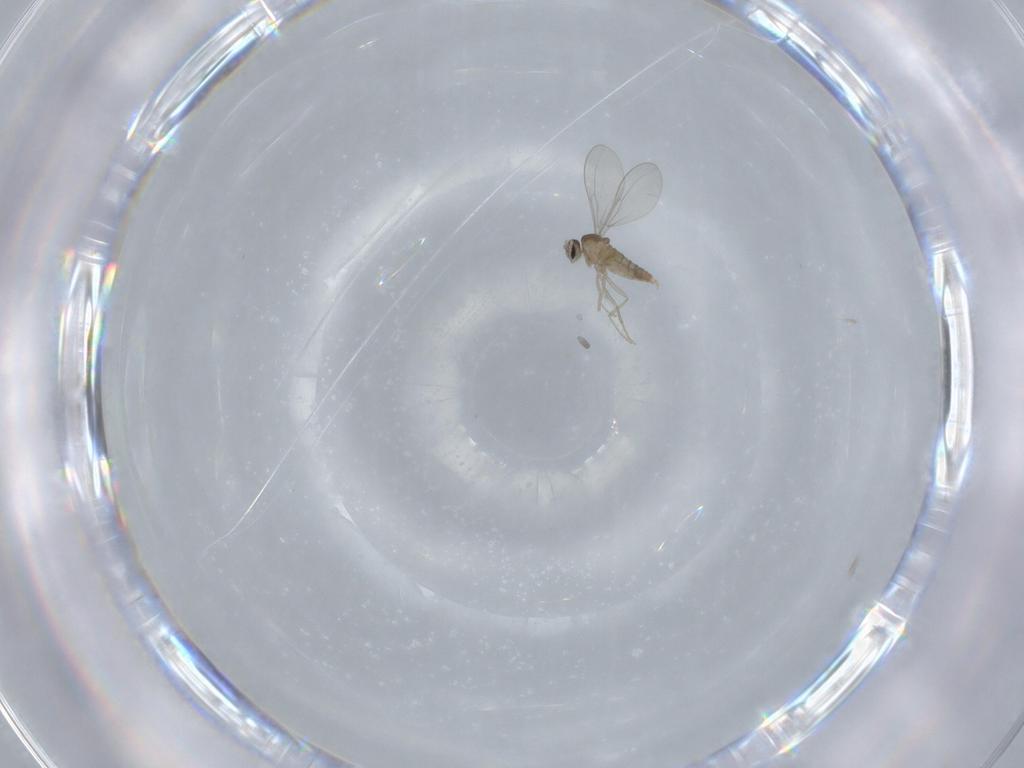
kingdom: Animalia
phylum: Arthropoda
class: Insecta
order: Diptera
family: Cecidomyiidae
